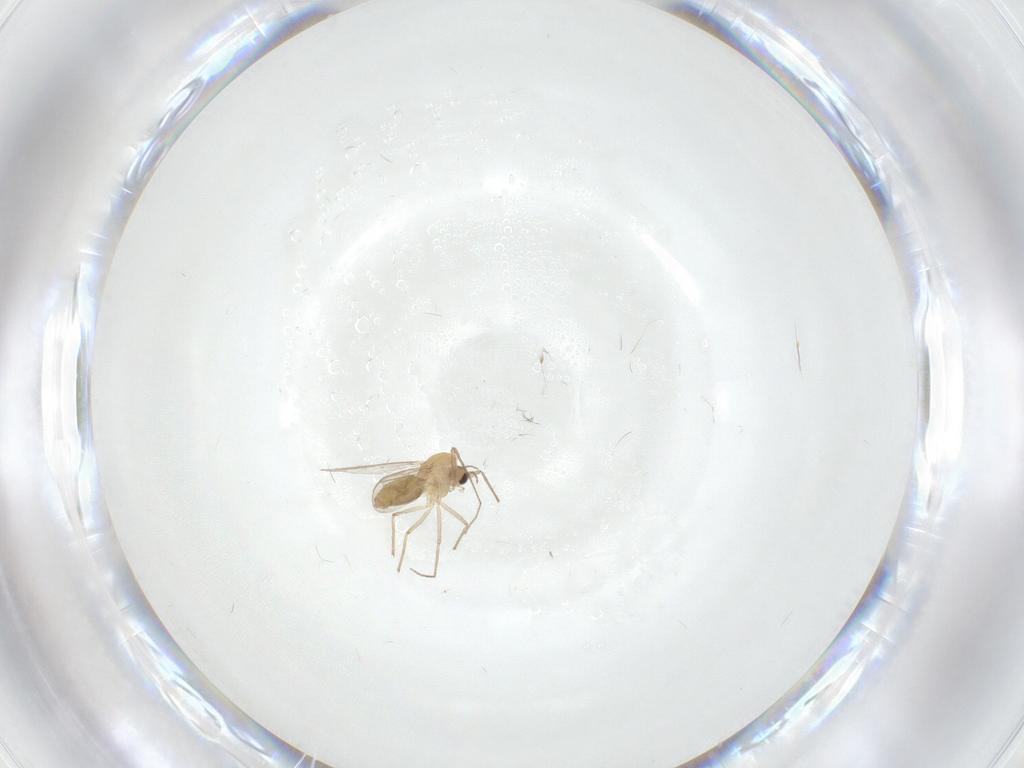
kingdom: Animalia
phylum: Arthropoda
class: Insecta
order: Diptera
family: Chironomidae
